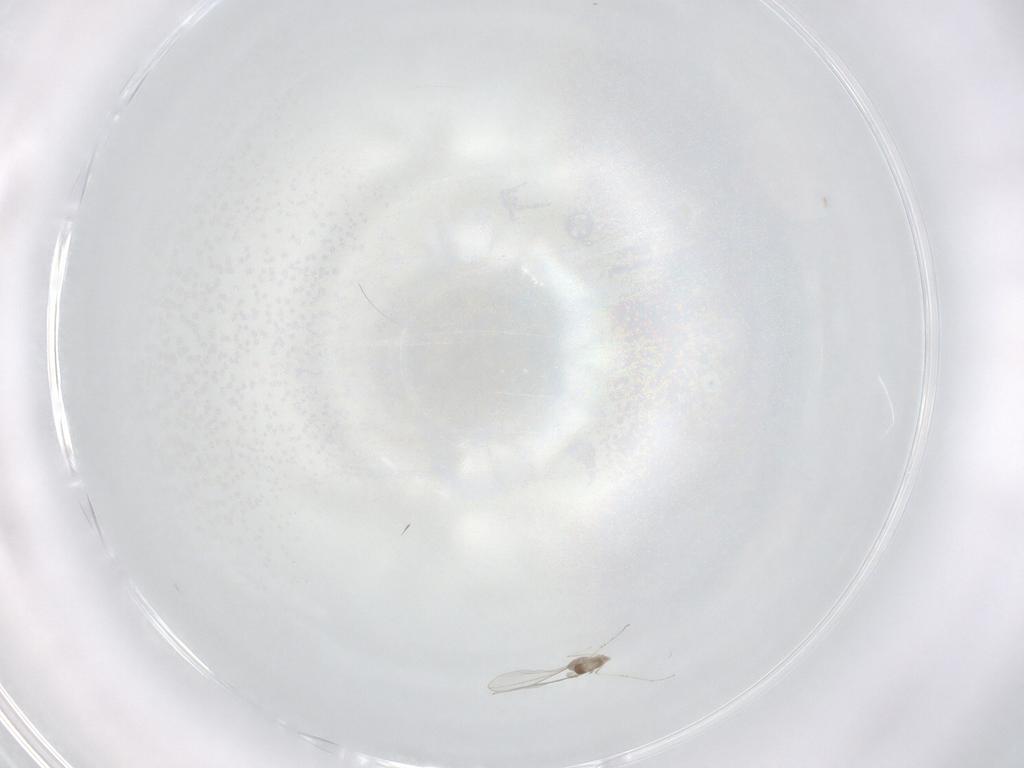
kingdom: Animalia
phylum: Arthropoda
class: Insecta
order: Diptera
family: Cecidomyiidae
